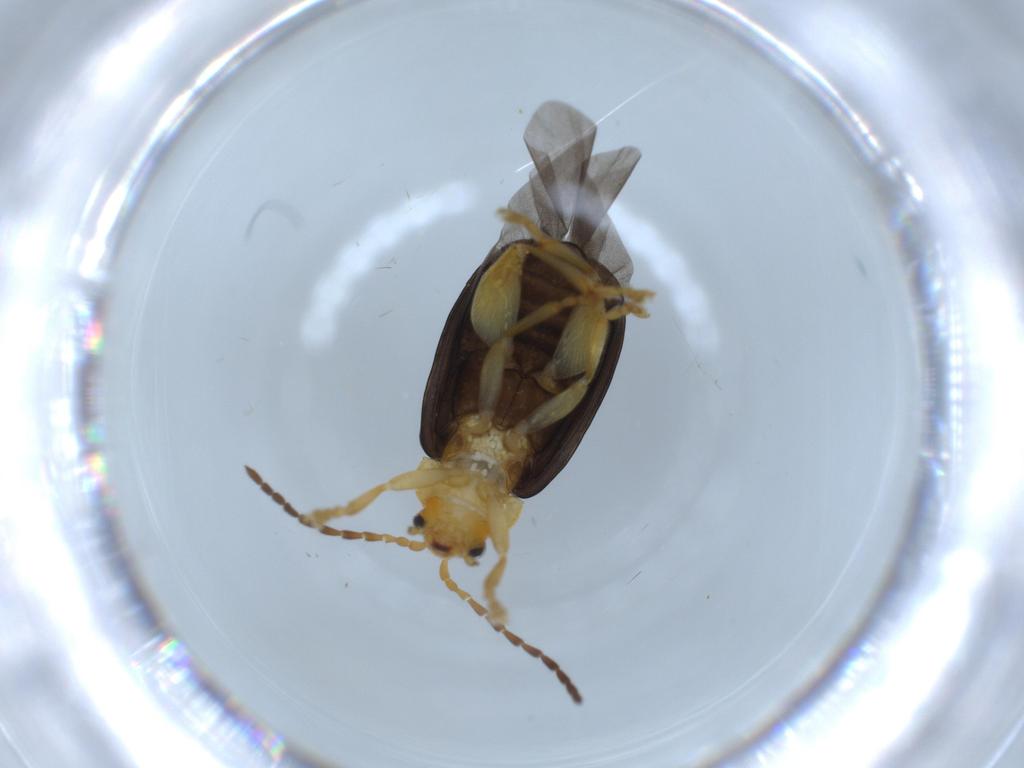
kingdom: Animalia
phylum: Arthropoda
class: Insecta
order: Coleoptera
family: Chrysomelidae
